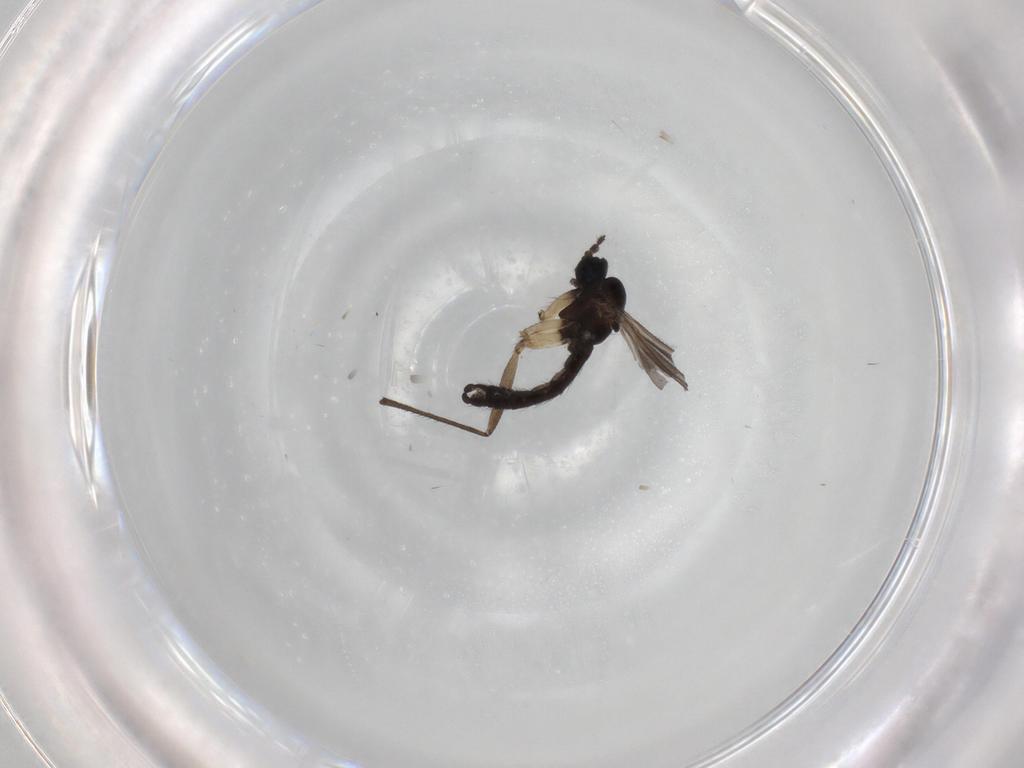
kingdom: Animalia
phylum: Arthropoda
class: Insecta
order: Diptera
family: Sciaridae
